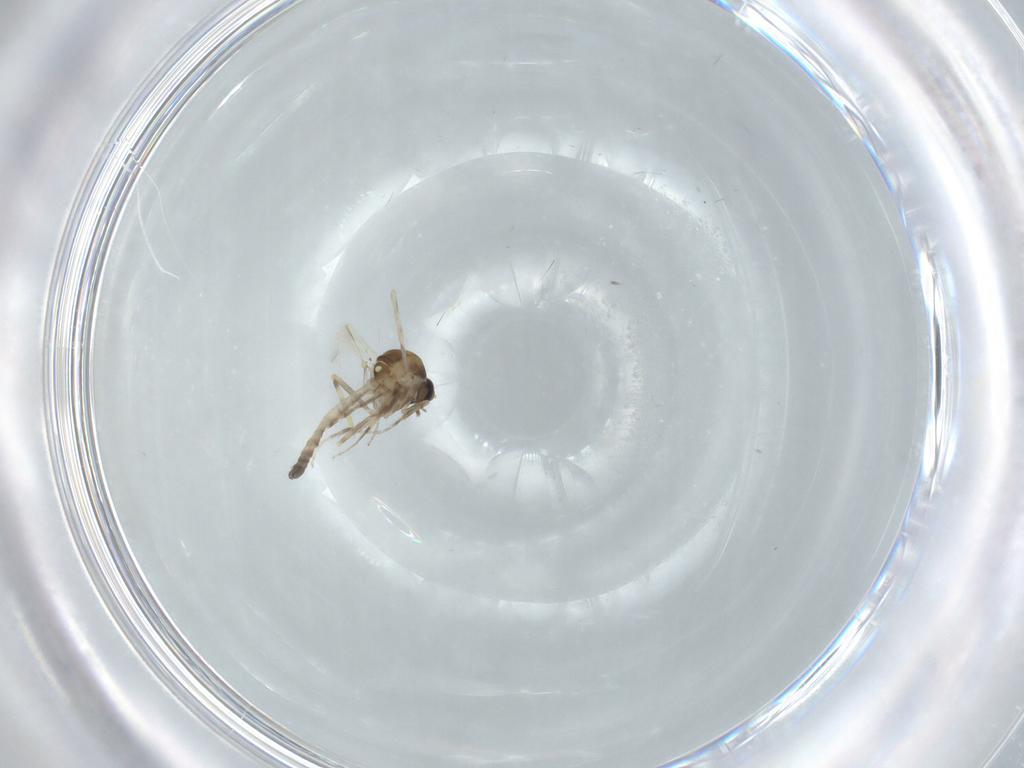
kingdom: Animalia
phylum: Arthropoda
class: Insecta
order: Diptera
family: Ceratopogonidae
